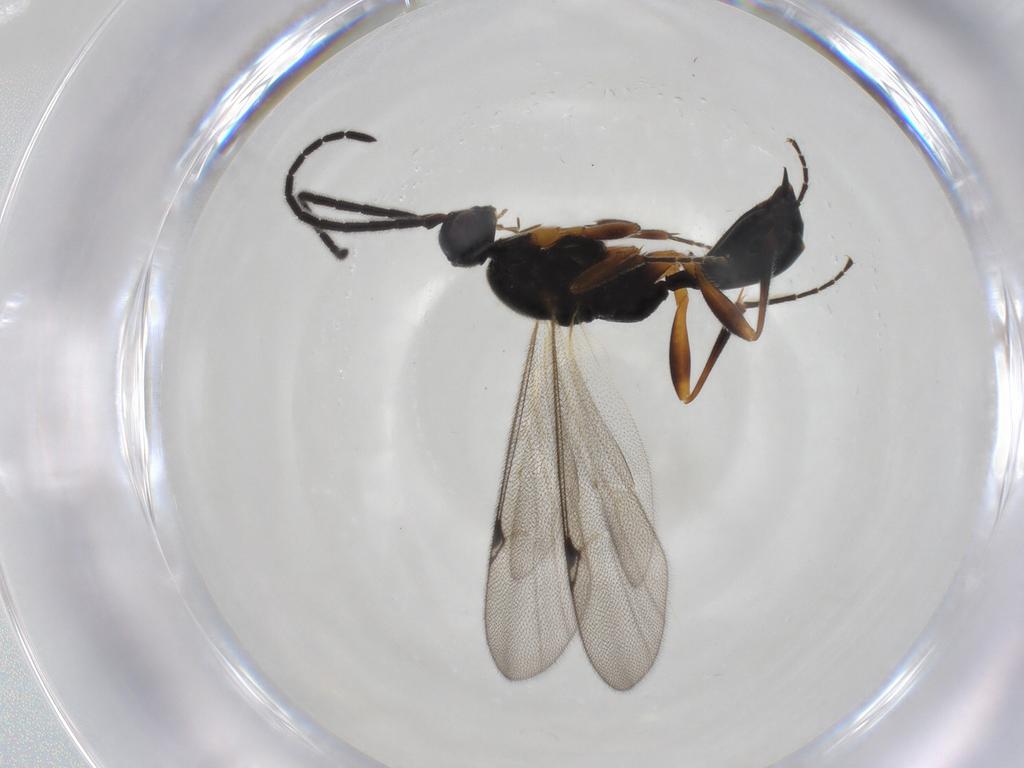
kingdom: Animalia
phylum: Arthropoda
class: Insecta
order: Hymenoptera
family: Proctotrupidae
